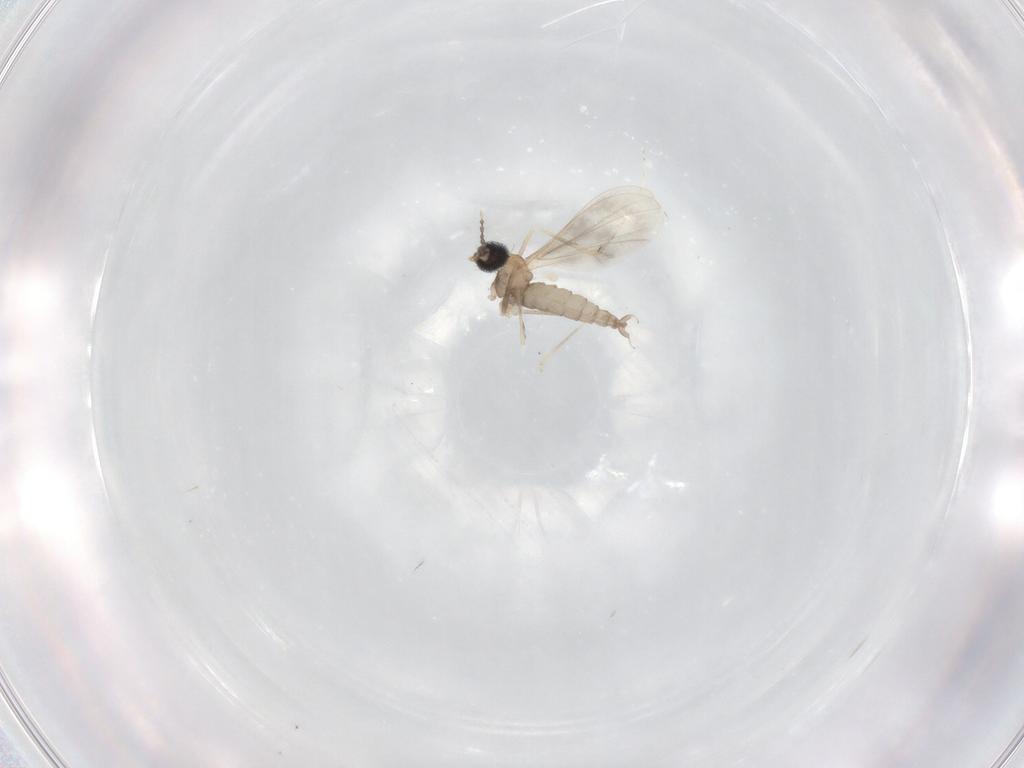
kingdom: Animalia
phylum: Arthropoda
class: Insecta
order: Diptera
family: Cecidomyiidae
